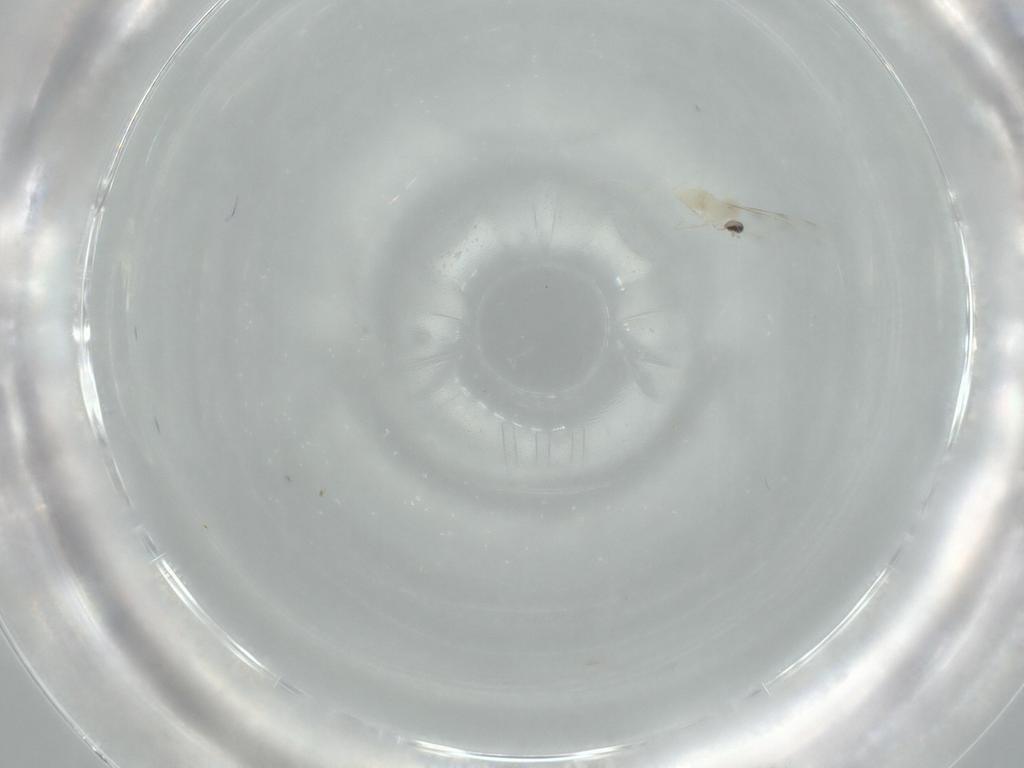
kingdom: Animalia
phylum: Arthropoda
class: Insecta
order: Diptera
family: Cecidomyiidae
